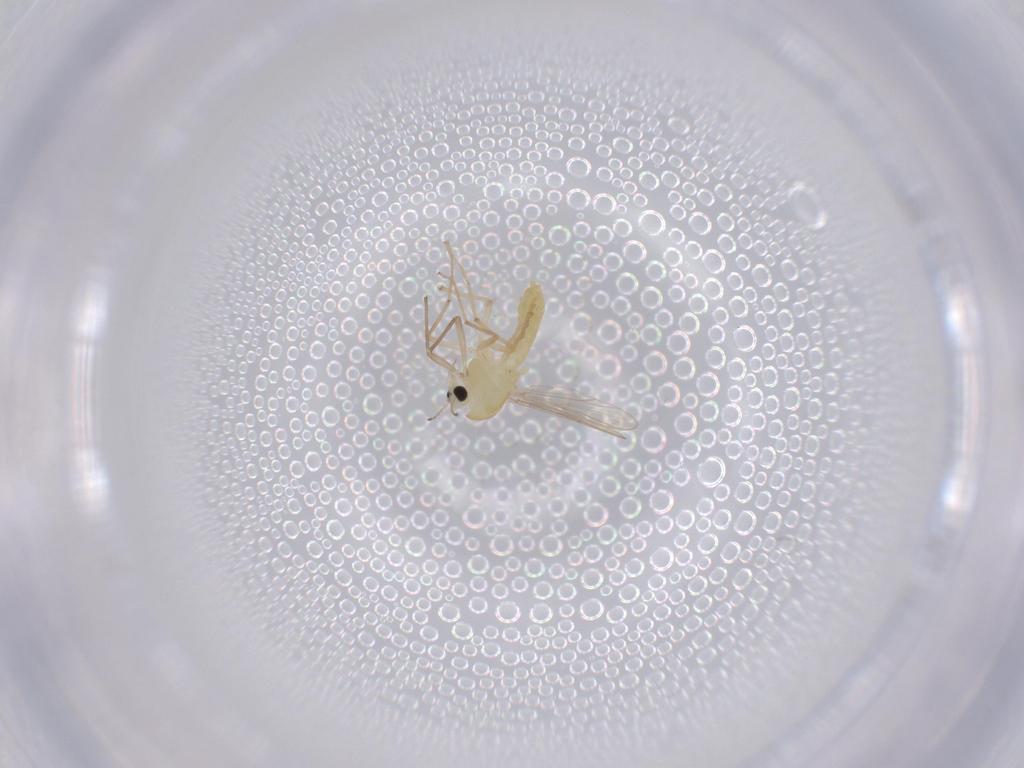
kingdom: Animalia
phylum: Arthropoda
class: Insecta
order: Diptera
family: Chironomidae
